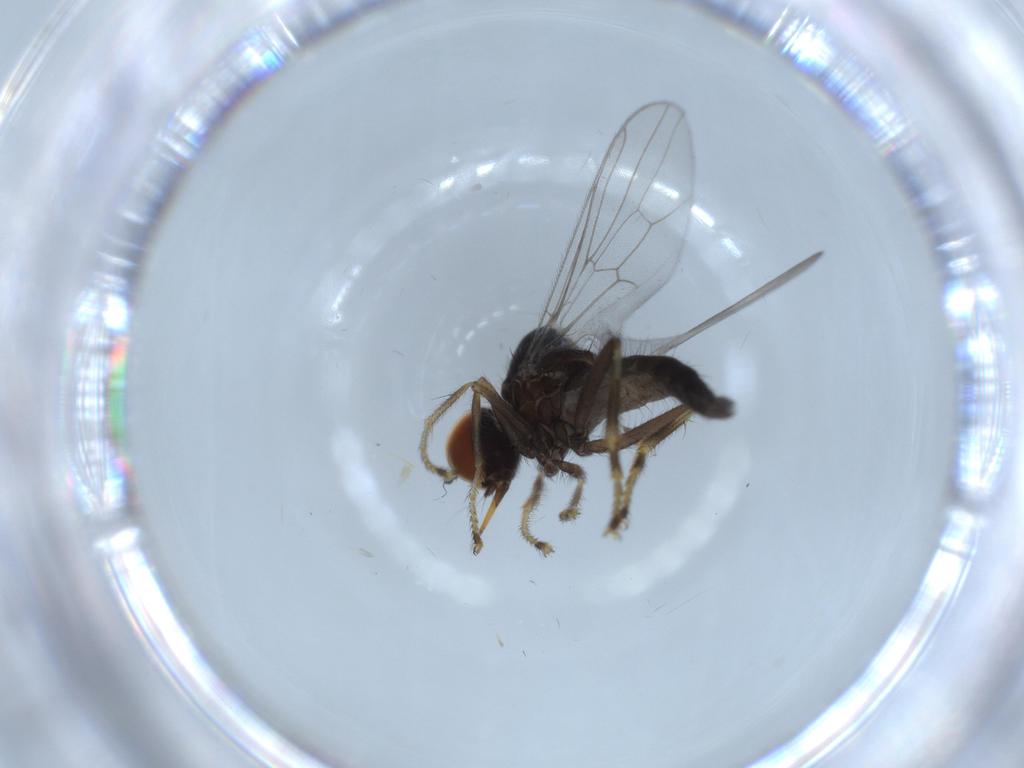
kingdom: Animalia
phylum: Arthropoda
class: Insecta
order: Diptera
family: Hybotidae
